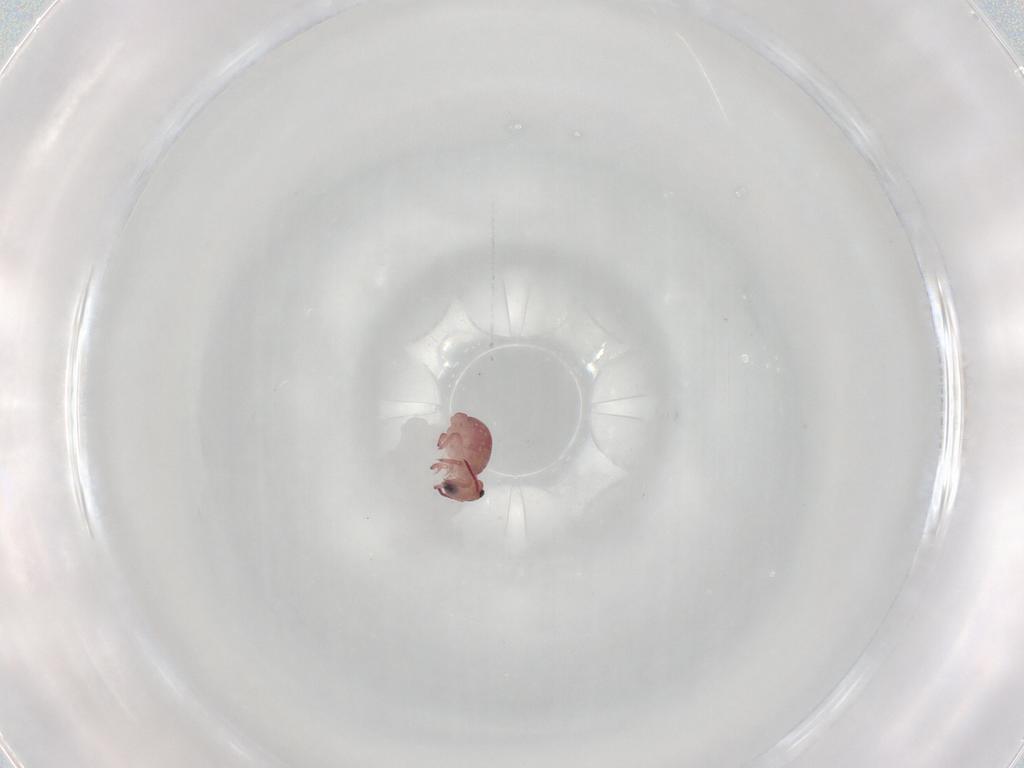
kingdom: Animalia
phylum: Arthropoda
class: Collembola
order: Symphypleona
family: Sminthurididae
